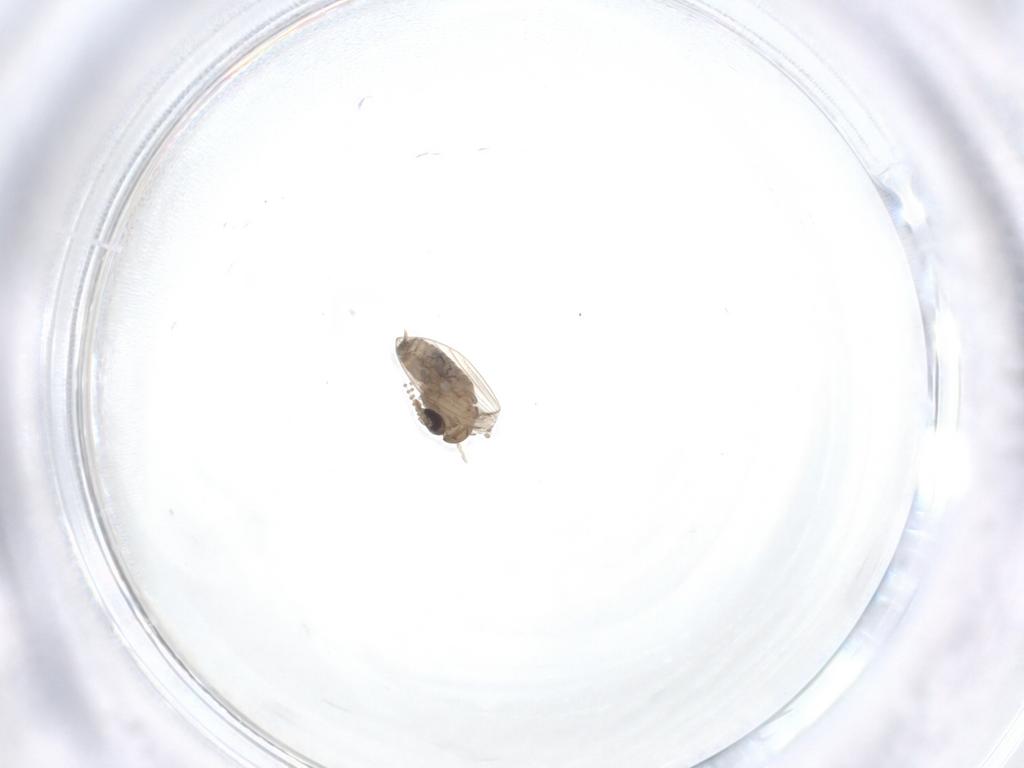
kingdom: Animalia
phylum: Arthropoda
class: Insecta
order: Diptera
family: Psychodidae
